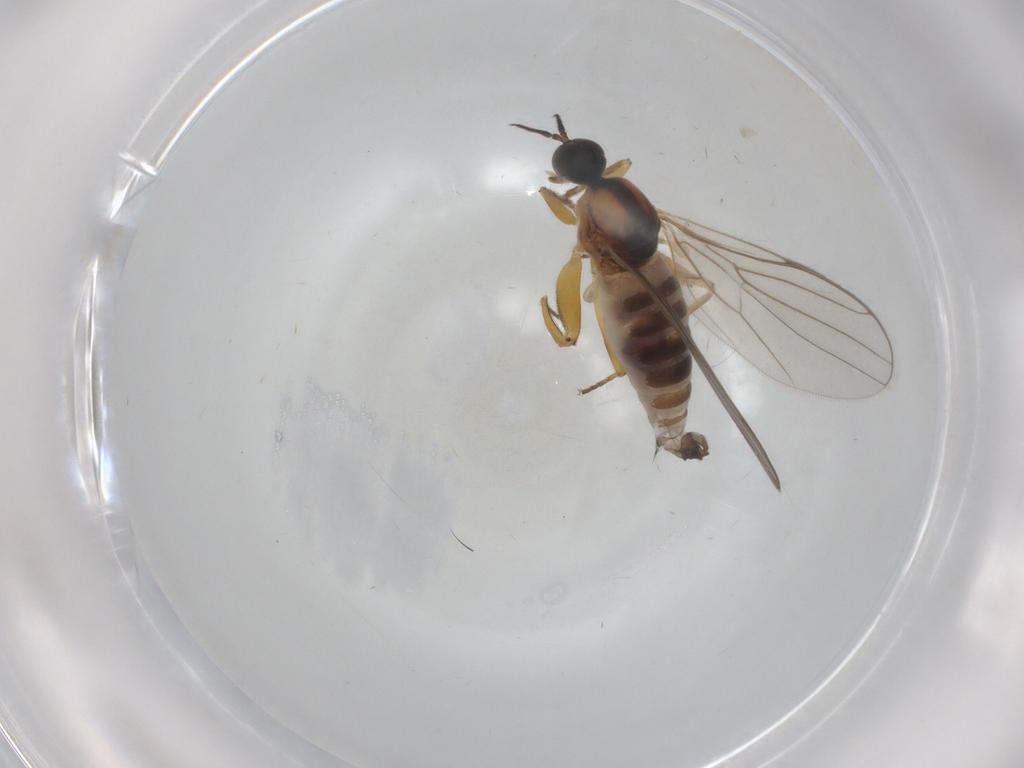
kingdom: Animalia
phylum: Arthropoda
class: Insecta
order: Diptera
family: Hybotidae
